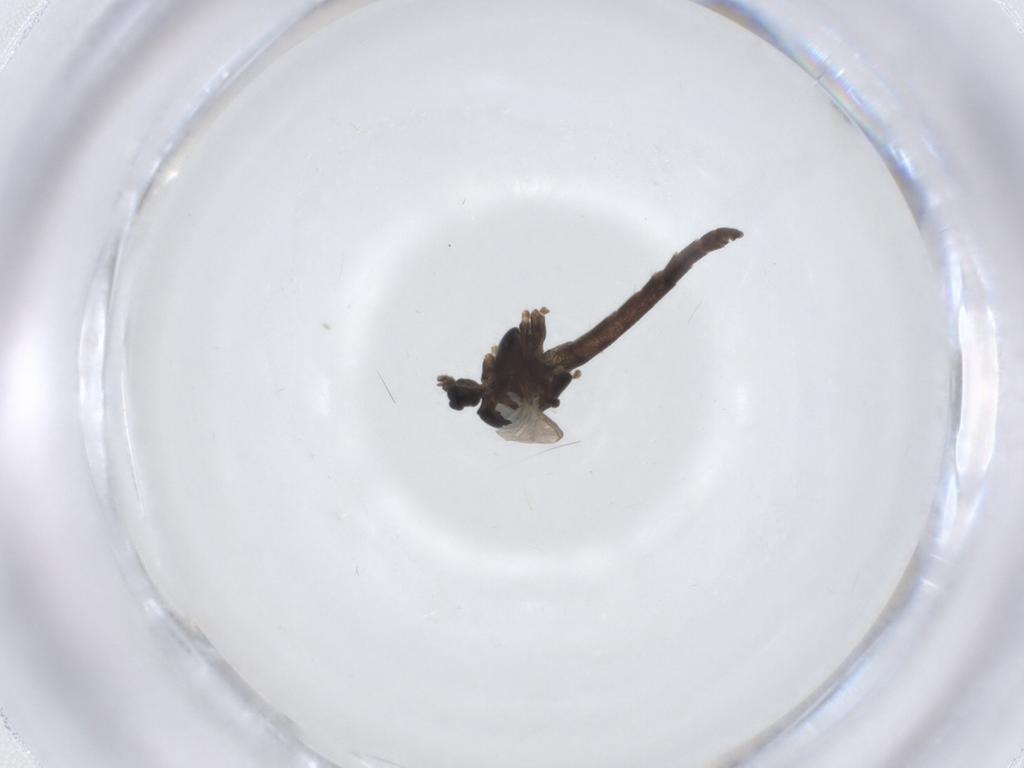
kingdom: Animalia
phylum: Arthropoda
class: Insecta
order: Diptera
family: Chironomidae
